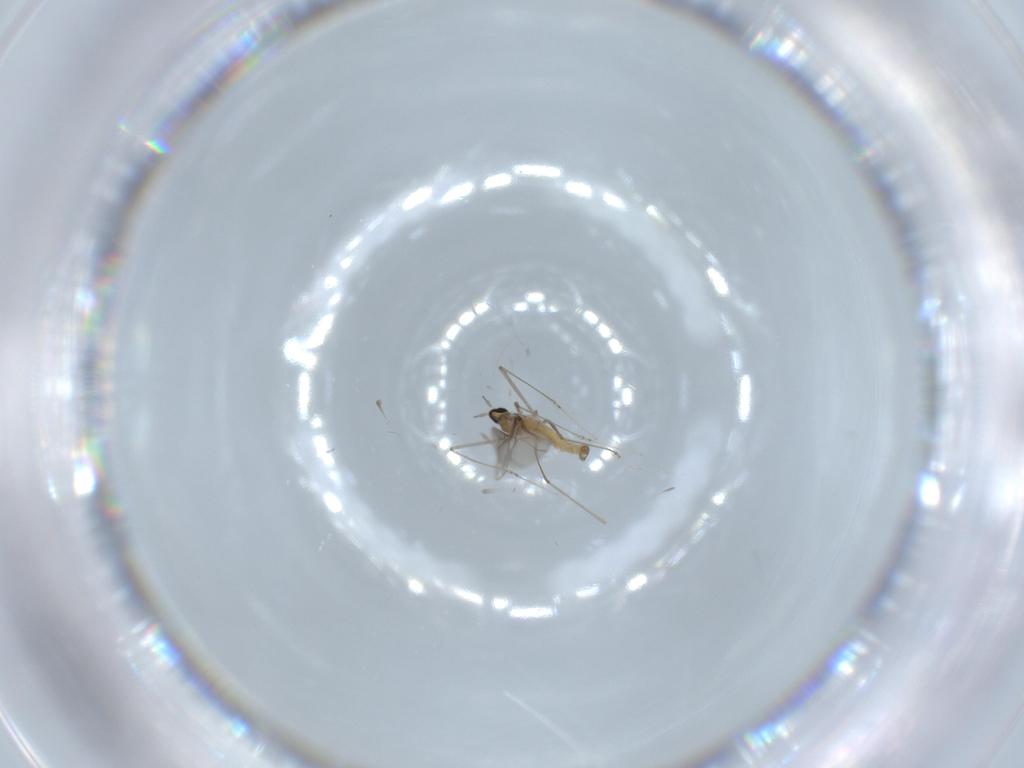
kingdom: Animalia
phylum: Arthropoda
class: Insecta
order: Diptera
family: Cecidomyiidae
